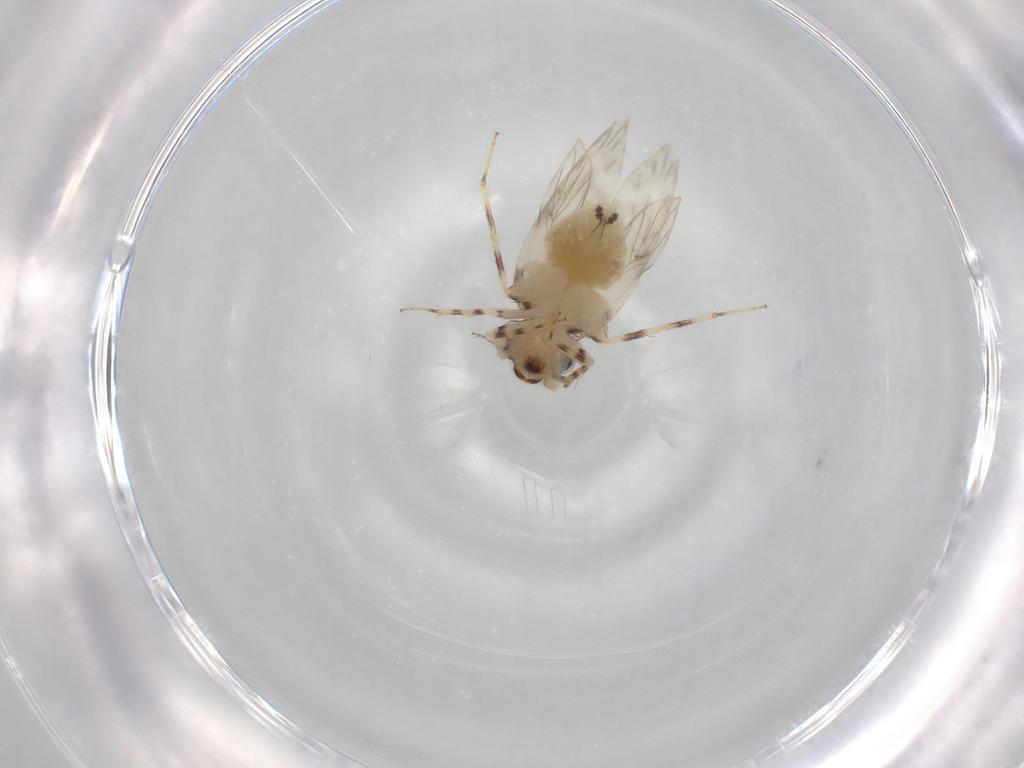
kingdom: Animalia
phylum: Arthropoda
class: Insecta
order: Psocodea
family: Lepidopsocidae
